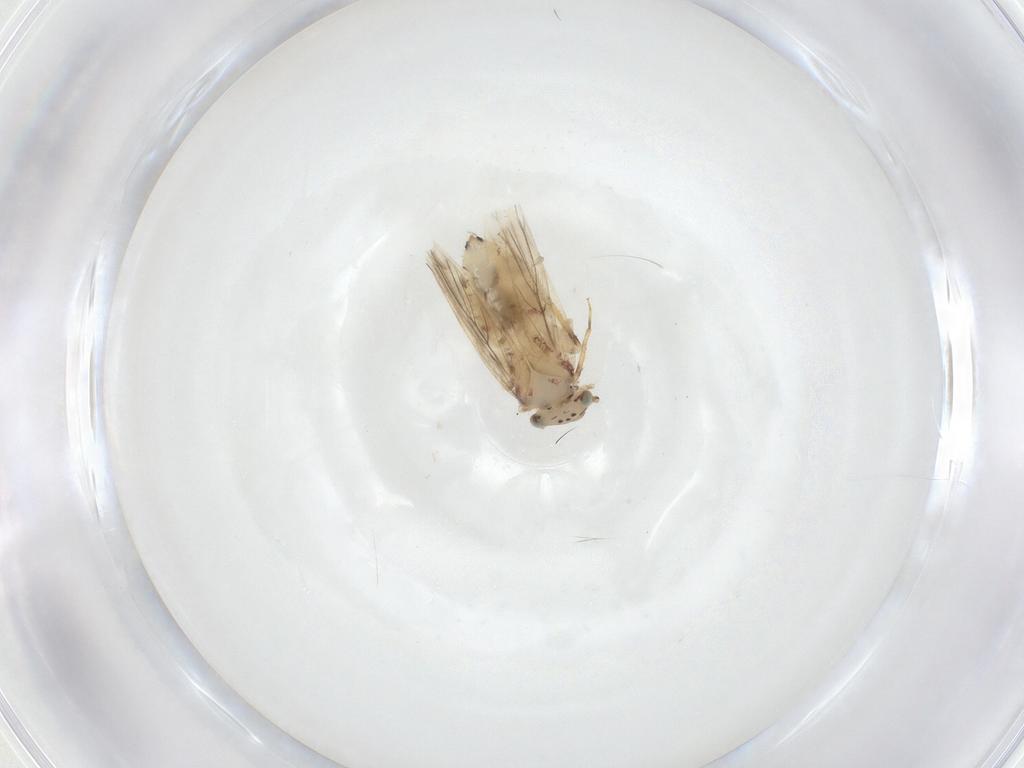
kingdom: Animalia
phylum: Arthropoda
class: Insecta
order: Psocodea
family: Lepidopsocidae
